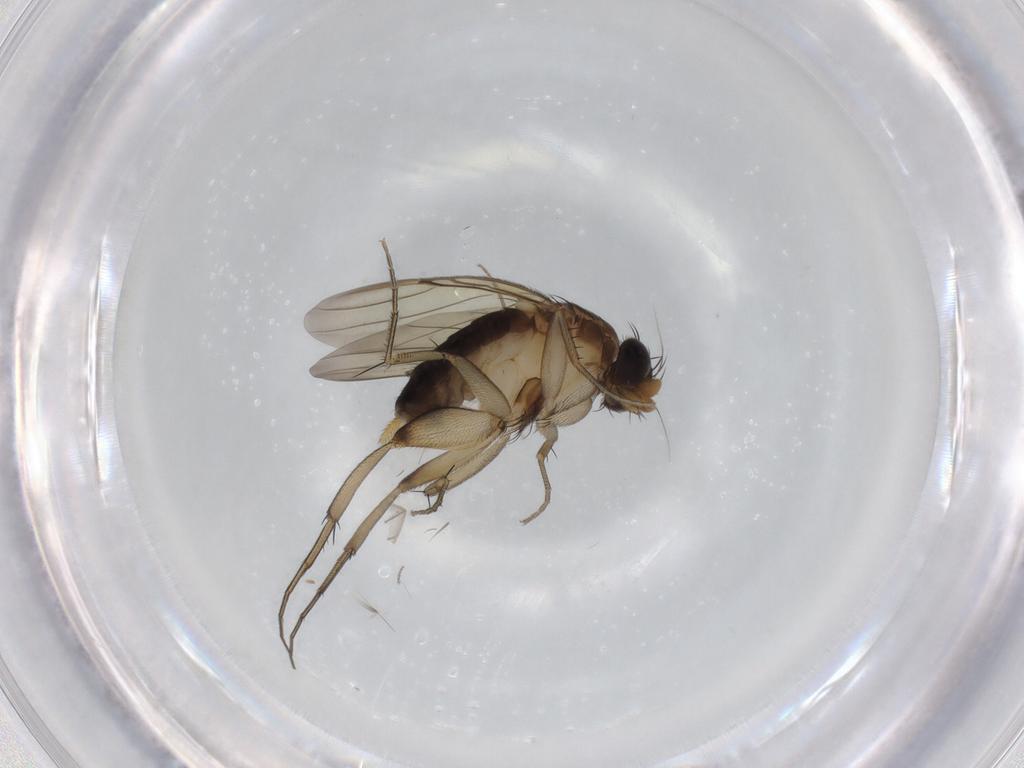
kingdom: Animalia
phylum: Arthropoda
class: Insecta
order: Diptera
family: Phoridae
